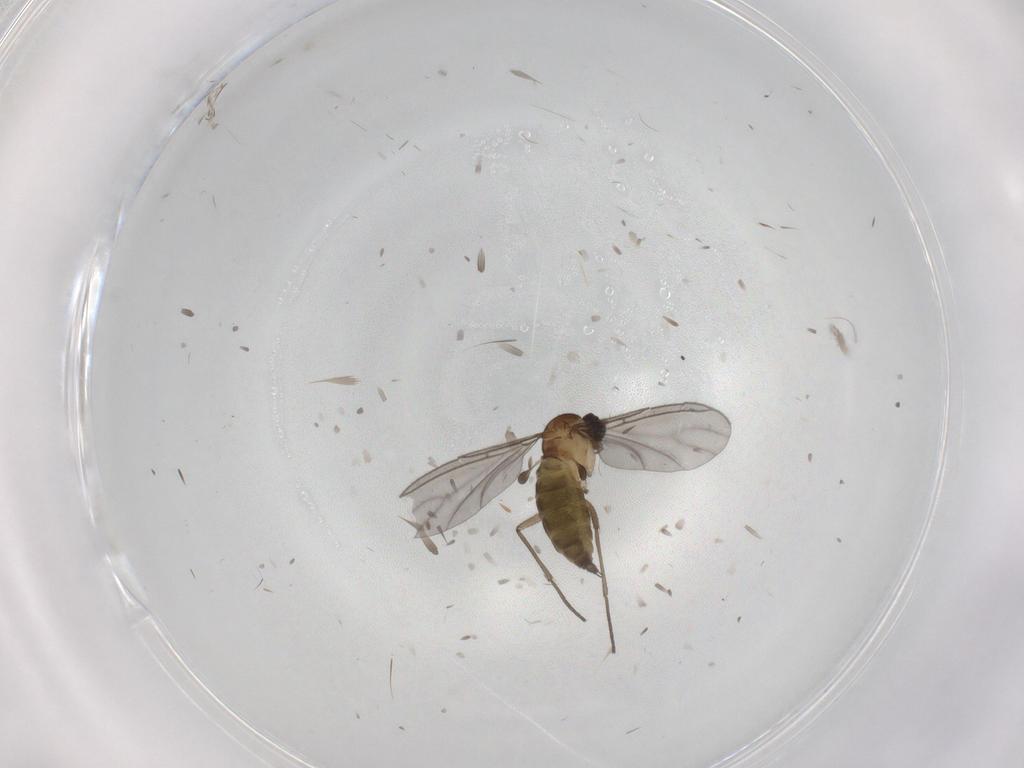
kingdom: Animalia
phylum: Arthropoda
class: Insecta
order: Diptera
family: Sciaridae
